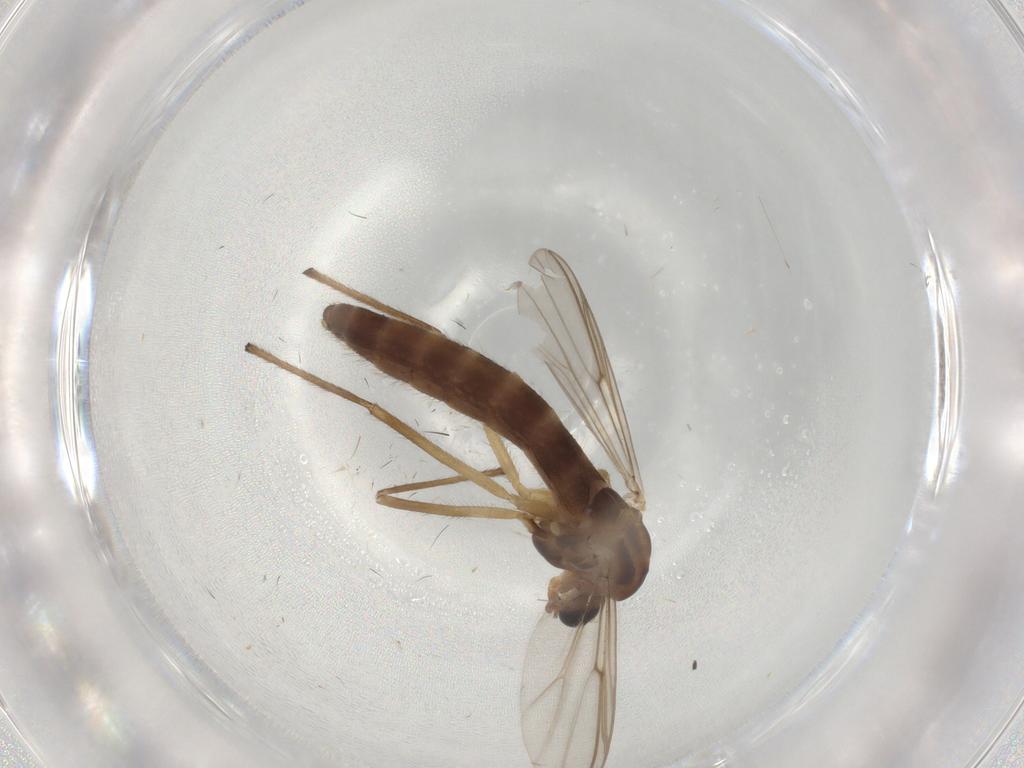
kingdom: Animalia
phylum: Arthropoda
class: Insecta
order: Diptera
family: Chironomidae
